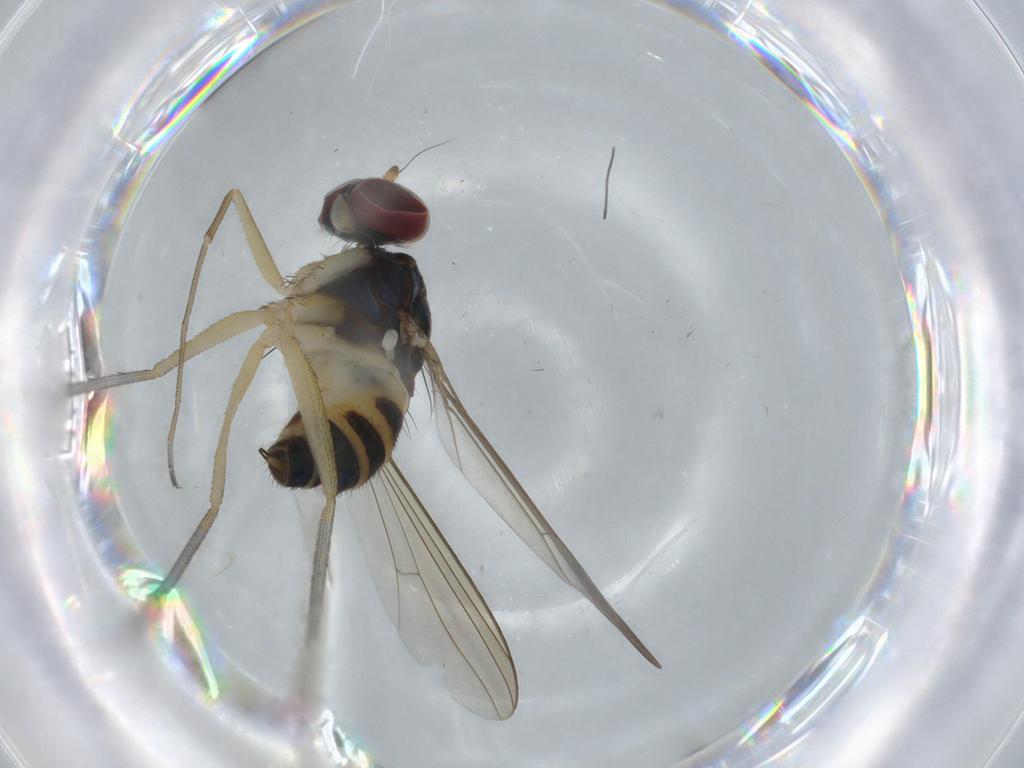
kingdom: Animalia
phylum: Arthropoda
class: Insecta
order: Diptera
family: Dolichopodidae
